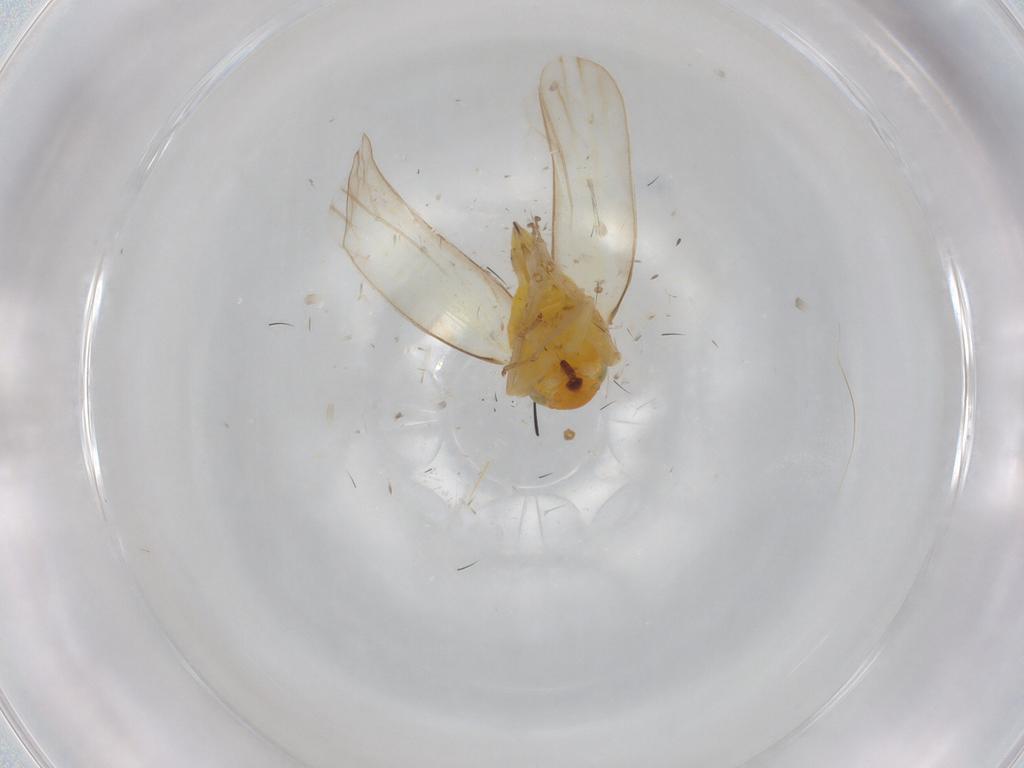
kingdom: Animalia
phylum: Arthropoda
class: Insecta
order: Hemiptera
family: Cicadellidae
